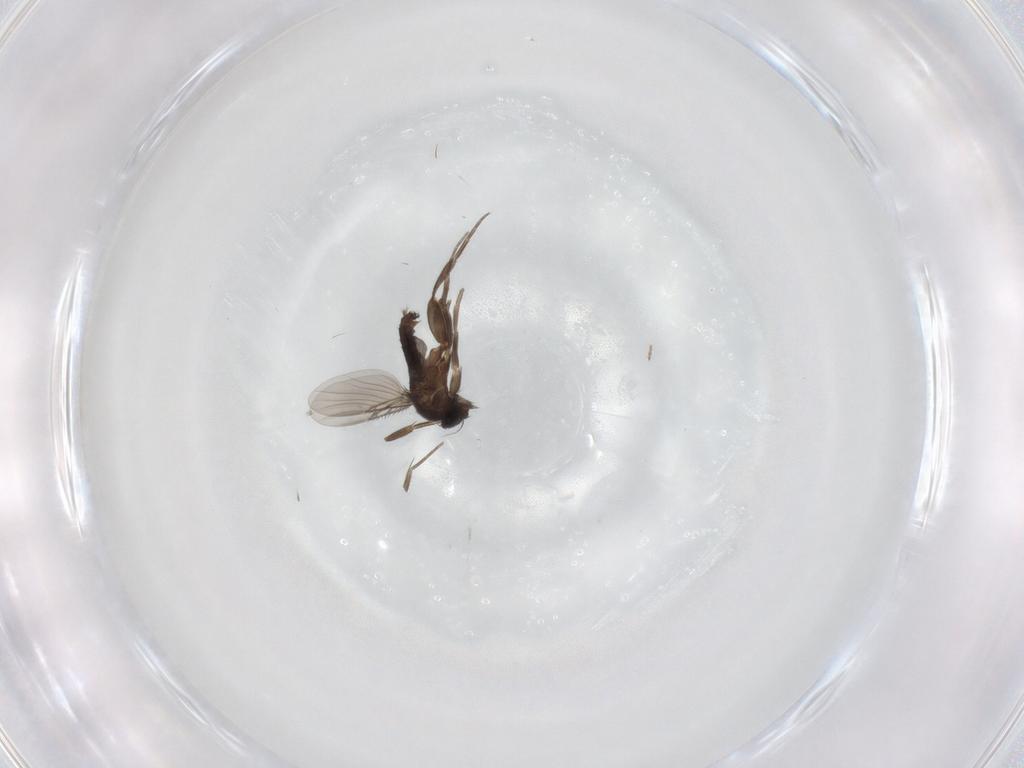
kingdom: Animalia
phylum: Arthropoda
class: Insecta
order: Diptera
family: Phoridae
